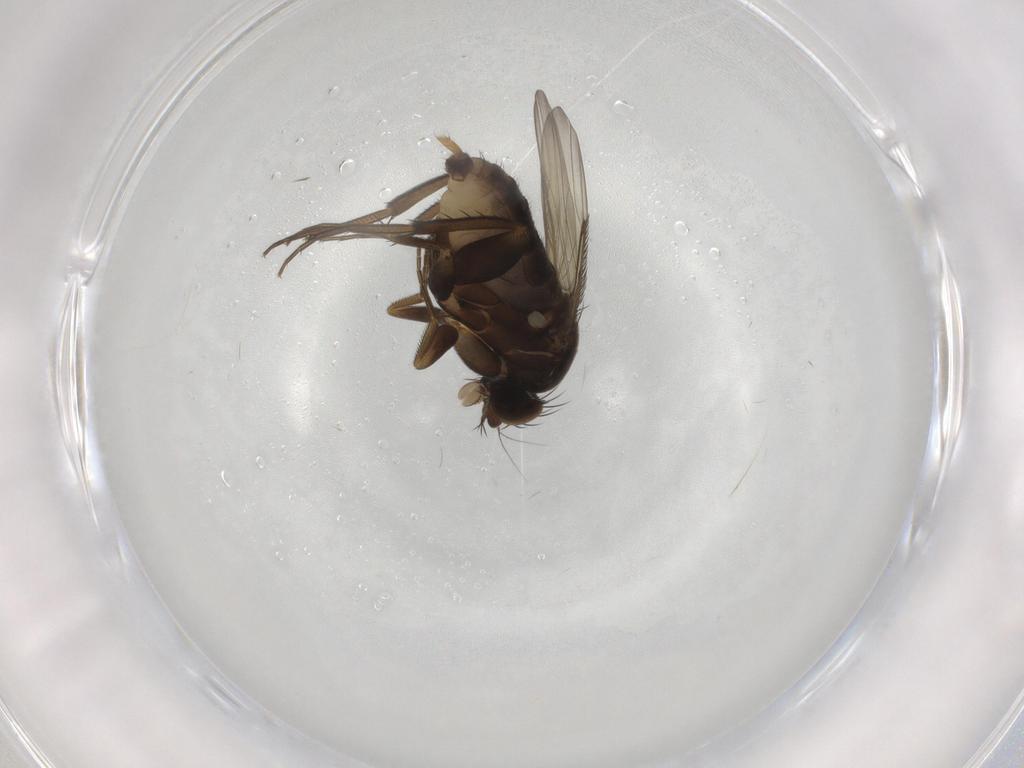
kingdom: Animalia
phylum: Arthropoda
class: Insecta
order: Diptera
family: Phoridae
